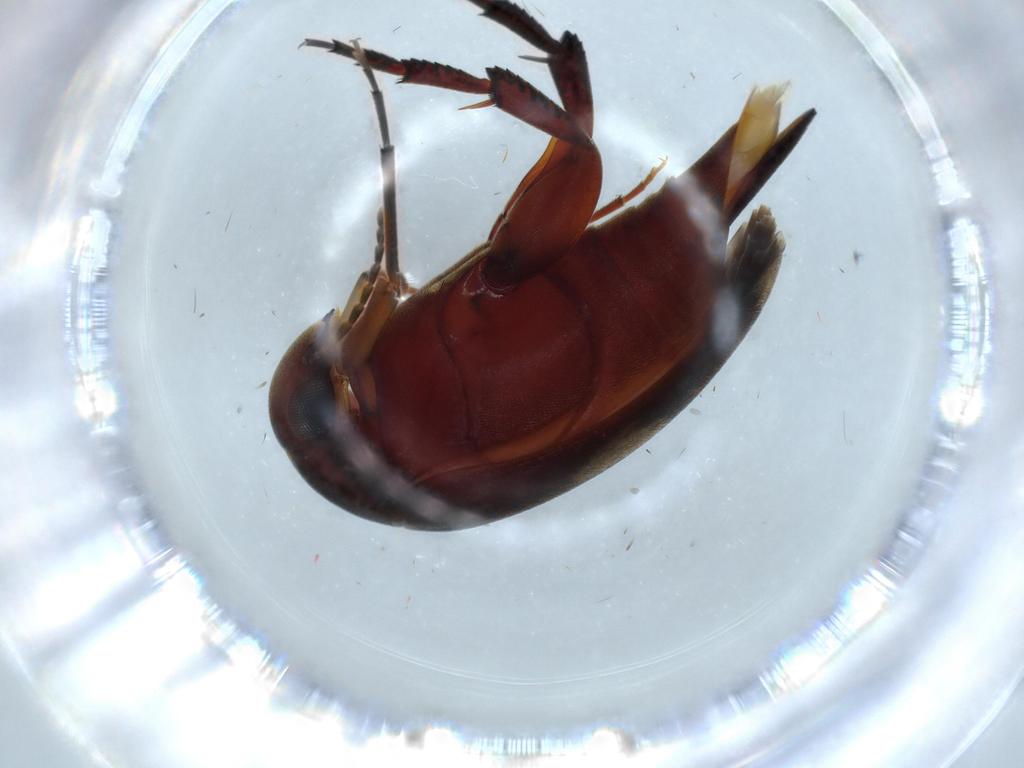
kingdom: Animalia
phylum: Arthropoda
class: Insecta
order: Coleoptera
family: Mordellidae
